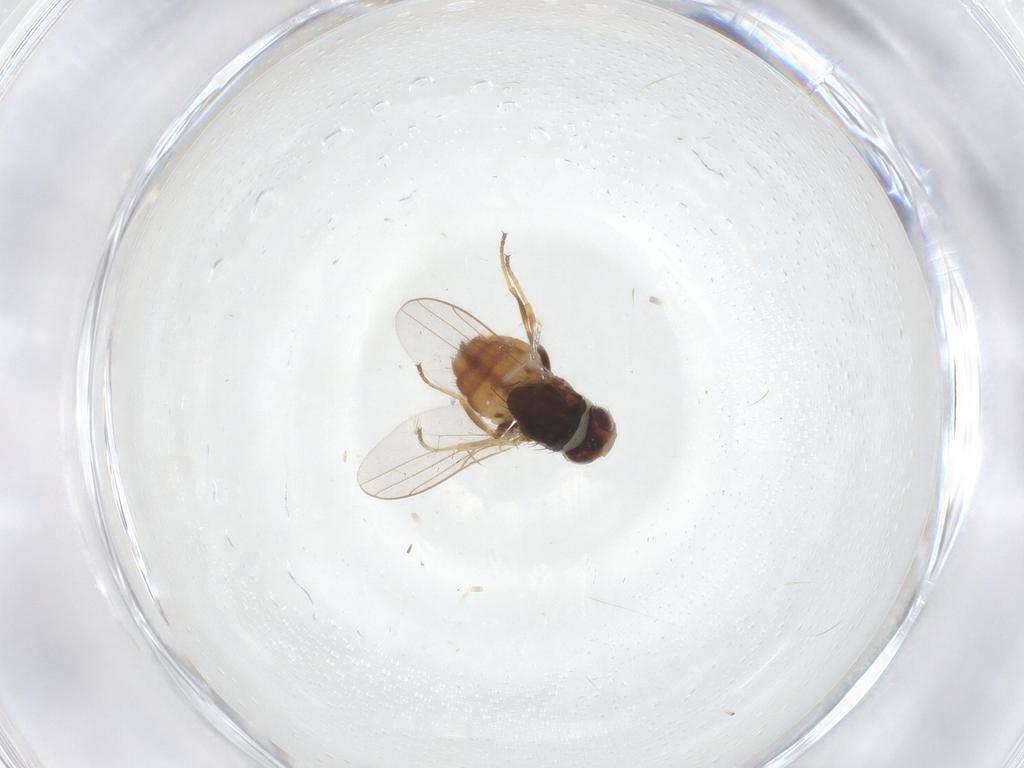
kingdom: Animalia
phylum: Arthropoda
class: Insecta
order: Diptera
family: Chloropidae
